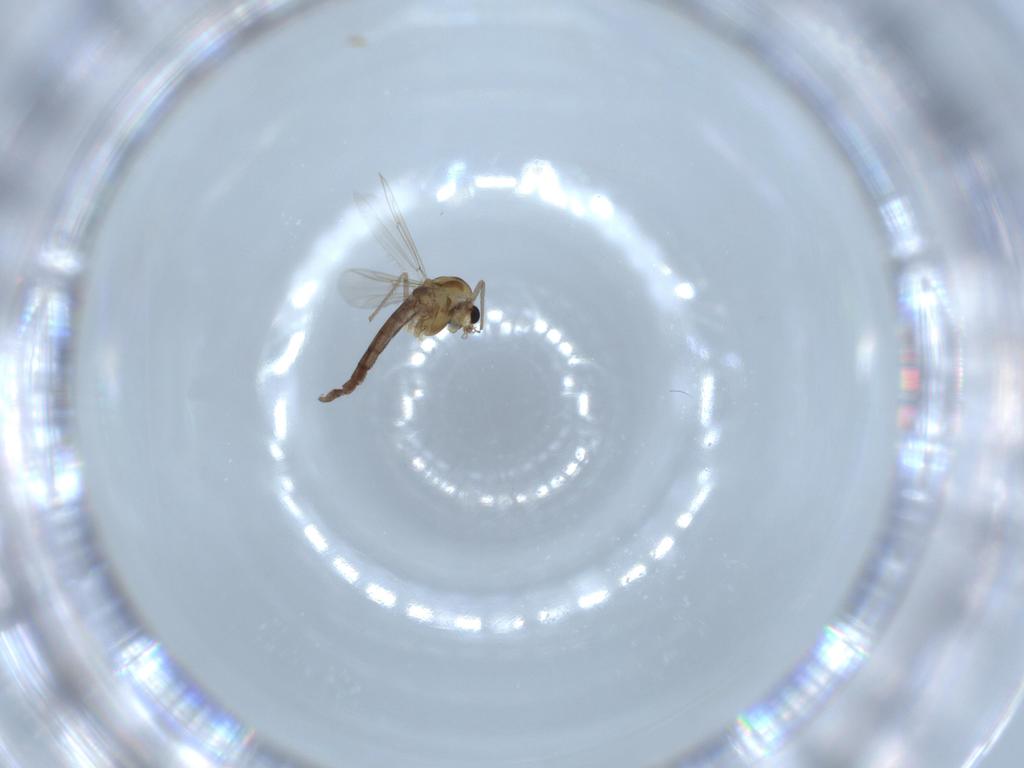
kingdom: Animalia
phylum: Arthropoda
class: Insecta
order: Diptera
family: Chironomidae
